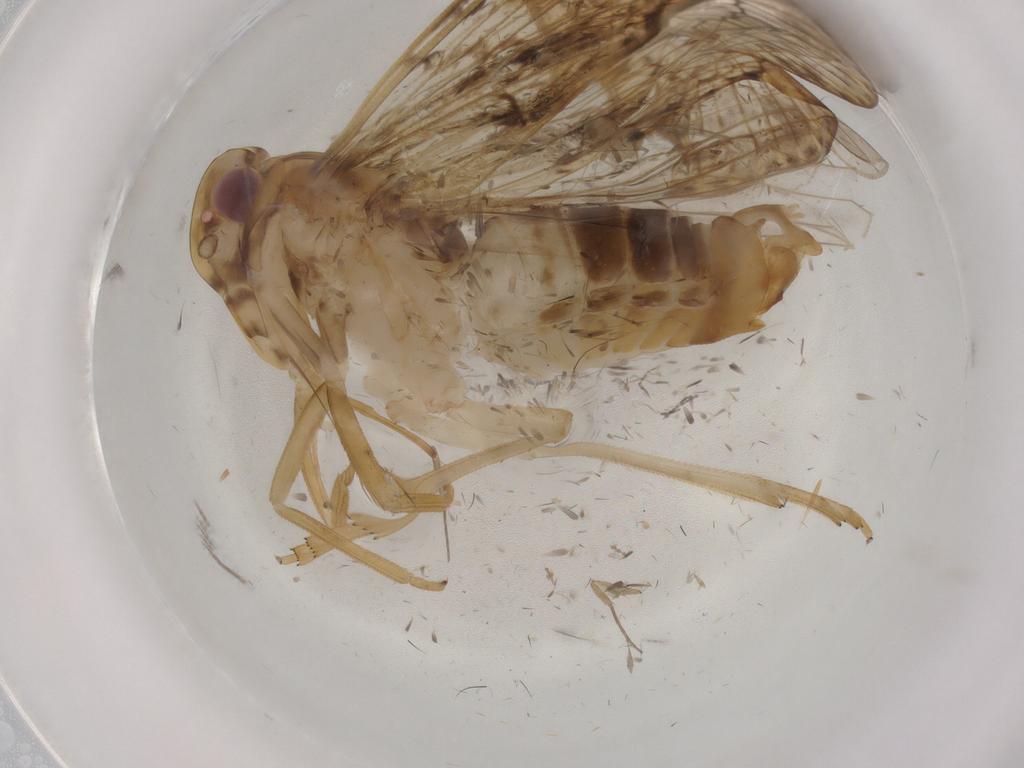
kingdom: Animalia
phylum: Arthropoda
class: Insecta
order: Hemiptera
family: Cixiidae
